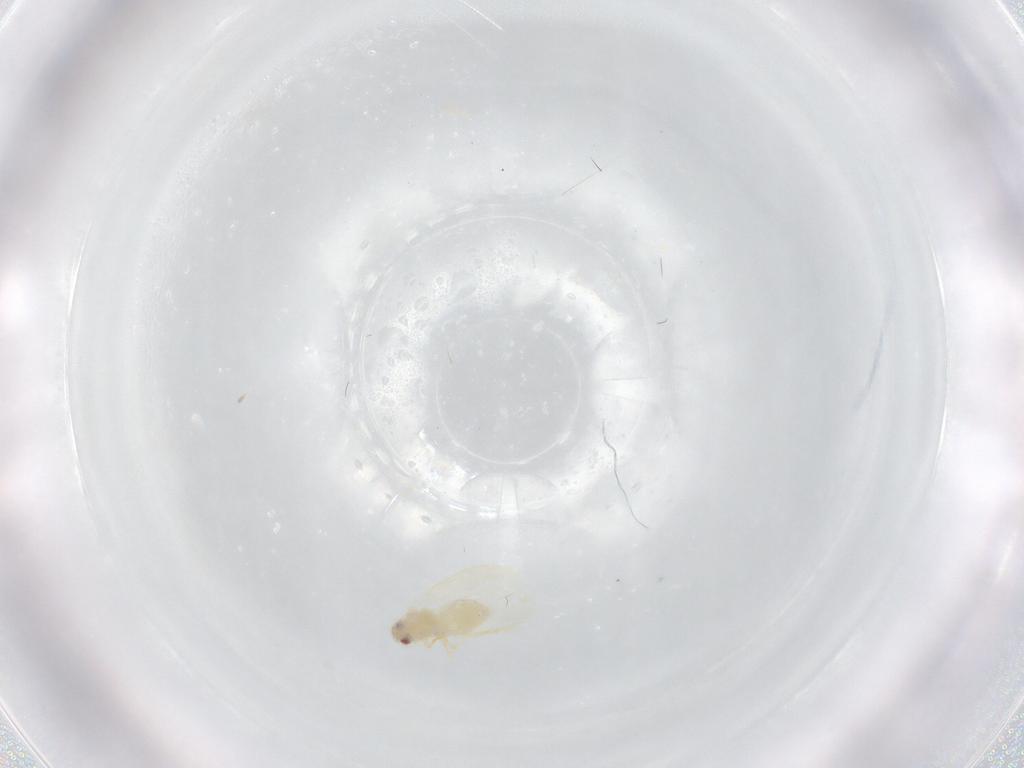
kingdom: Animalia
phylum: Arthropoda
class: Insecta
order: Hemiptera
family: Aleyrodidae
